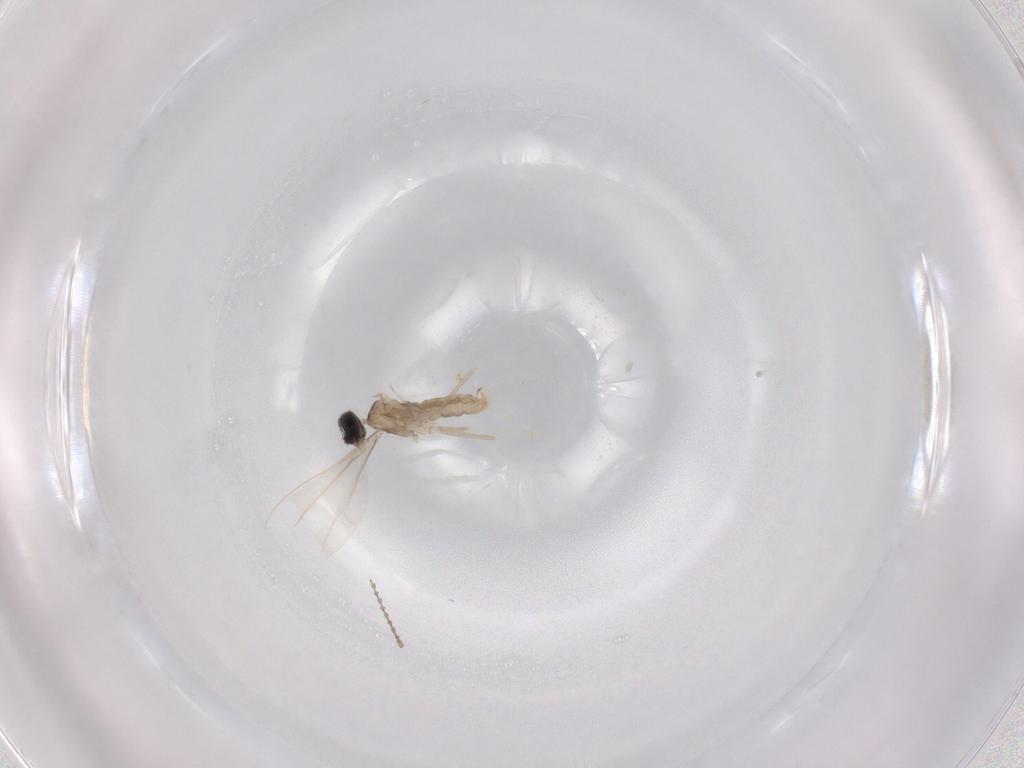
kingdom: Animalia
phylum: Arthropoda
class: Insecta
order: Diptera
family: Cecidomyiidae
